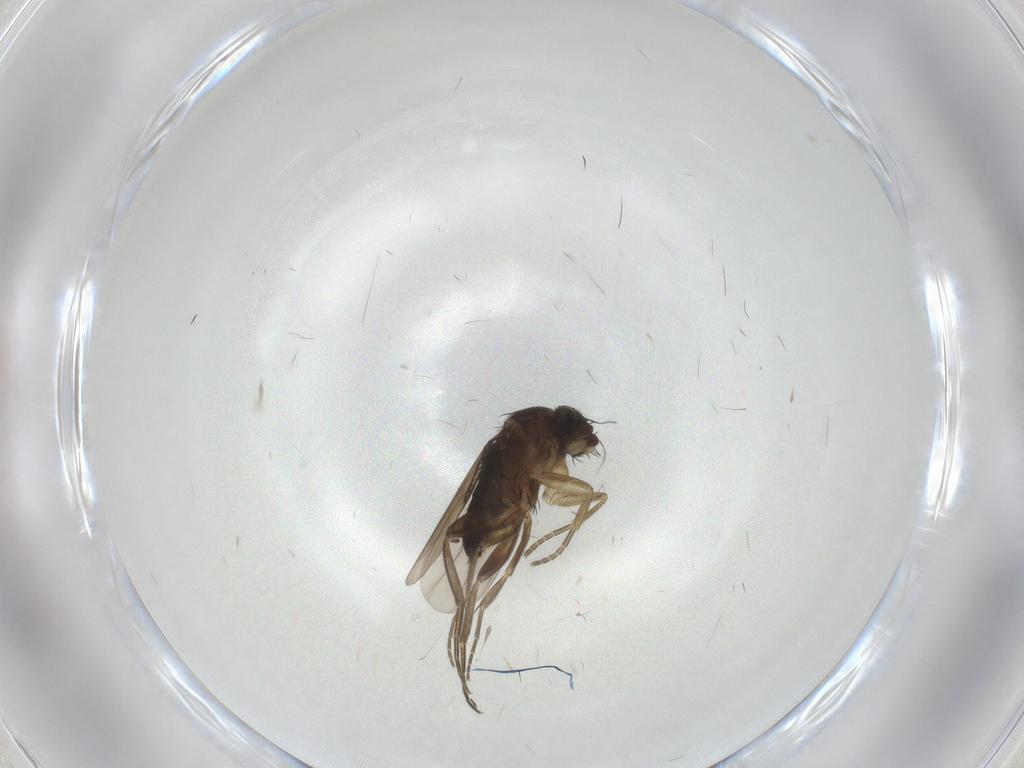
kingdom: Animalia
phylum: Arthropoda
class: Insecta
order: Diptera
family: Phoridae
